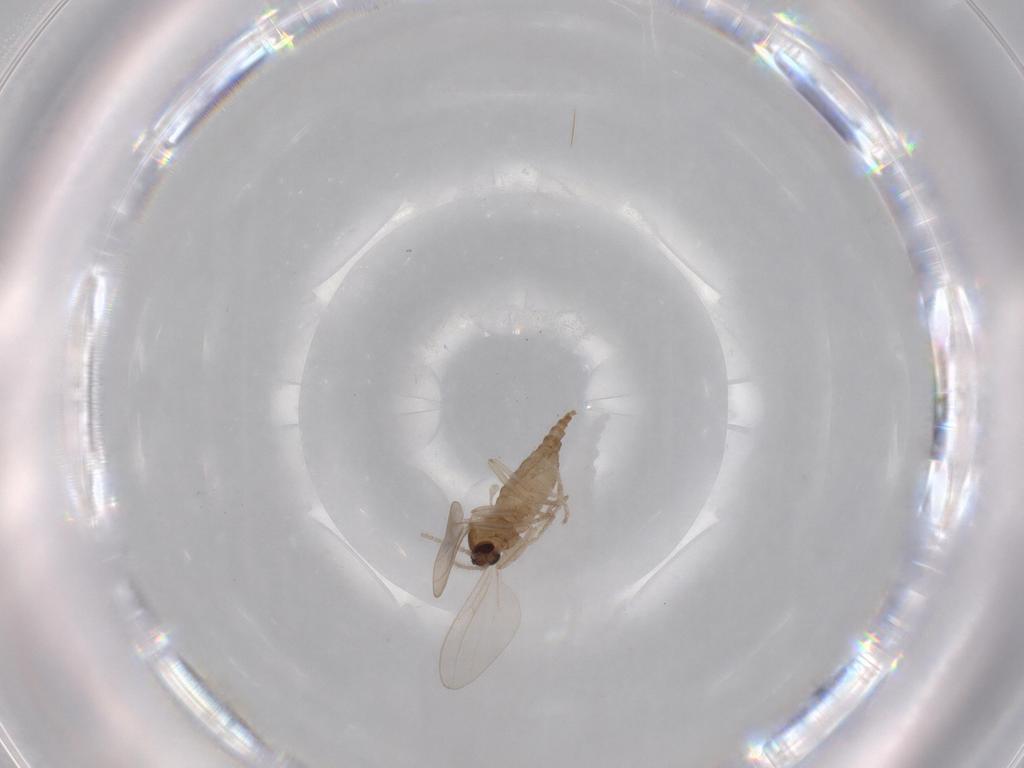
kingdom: Animalia
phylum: Arthropoda
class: Insecta
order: Diptera
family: Cecidomyiidae
